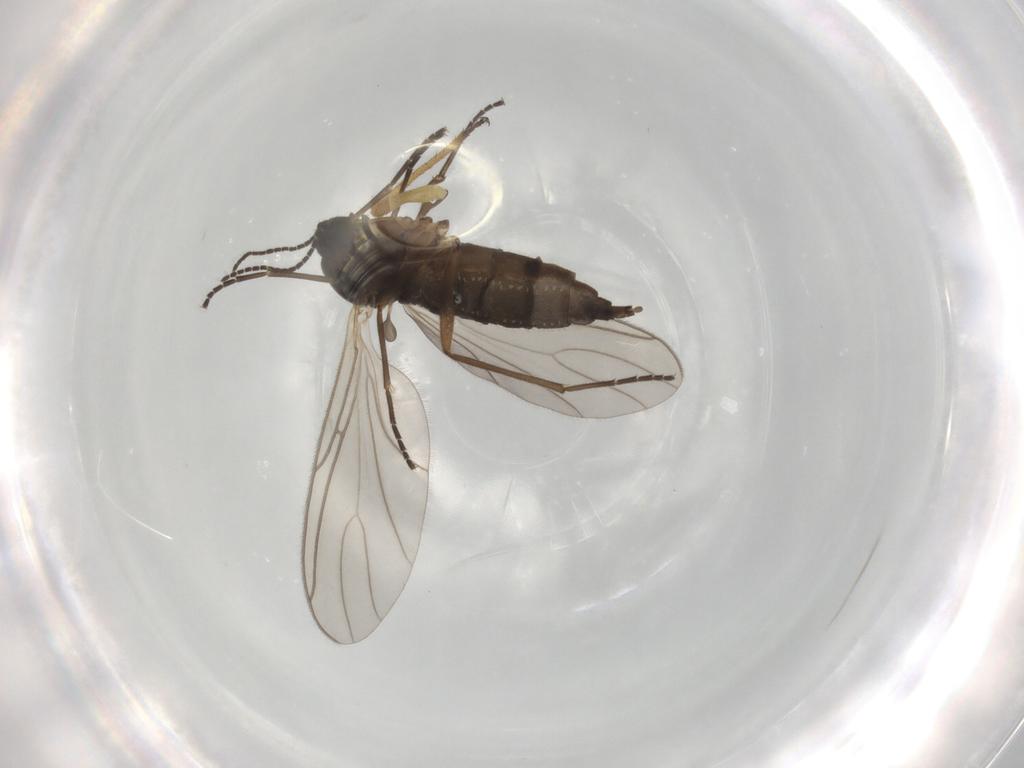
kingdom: Animalia
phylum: Arthropoda
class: Insecta
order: Diptera
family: Sciaridae
